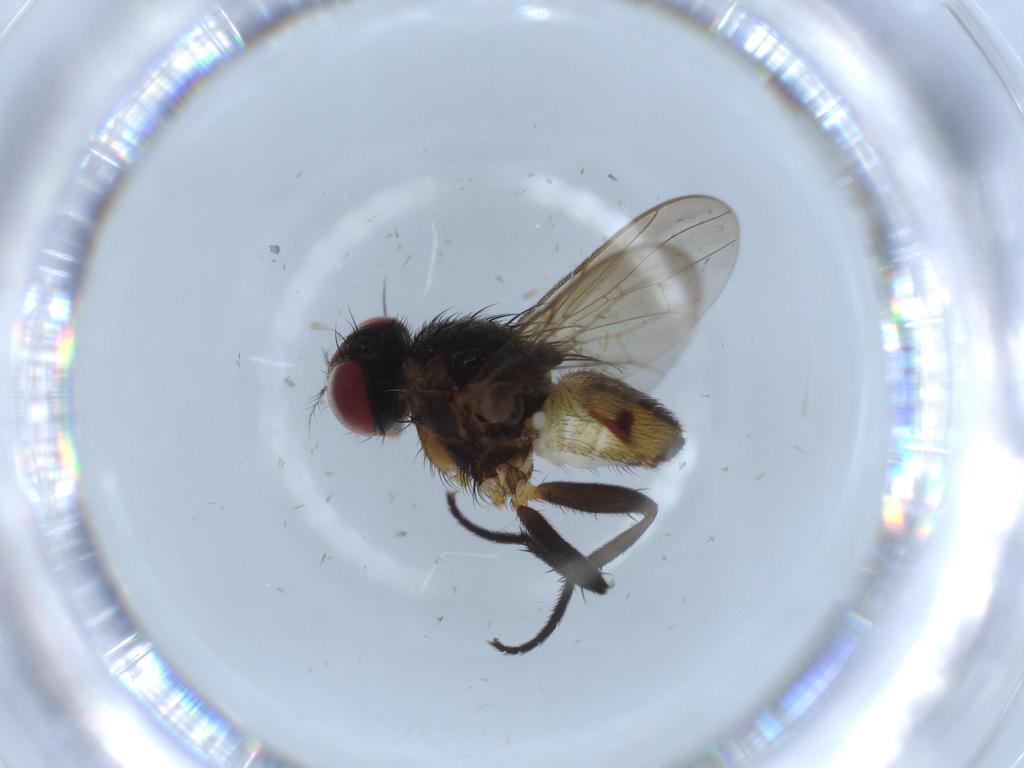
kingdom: Animalia
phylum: Arthropoda
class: Insecta
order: Diptera
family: Anthomyiidae
